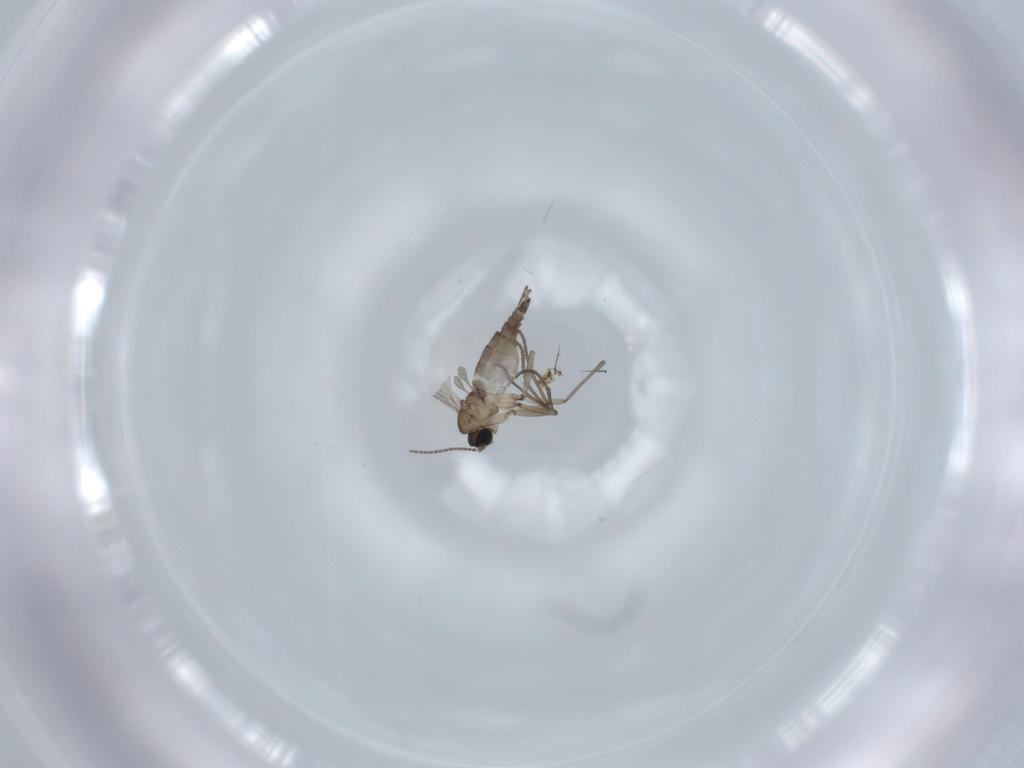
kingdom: Animalia
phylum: Arthropoda
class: Insecta
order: Diptera
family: Sciaridae
